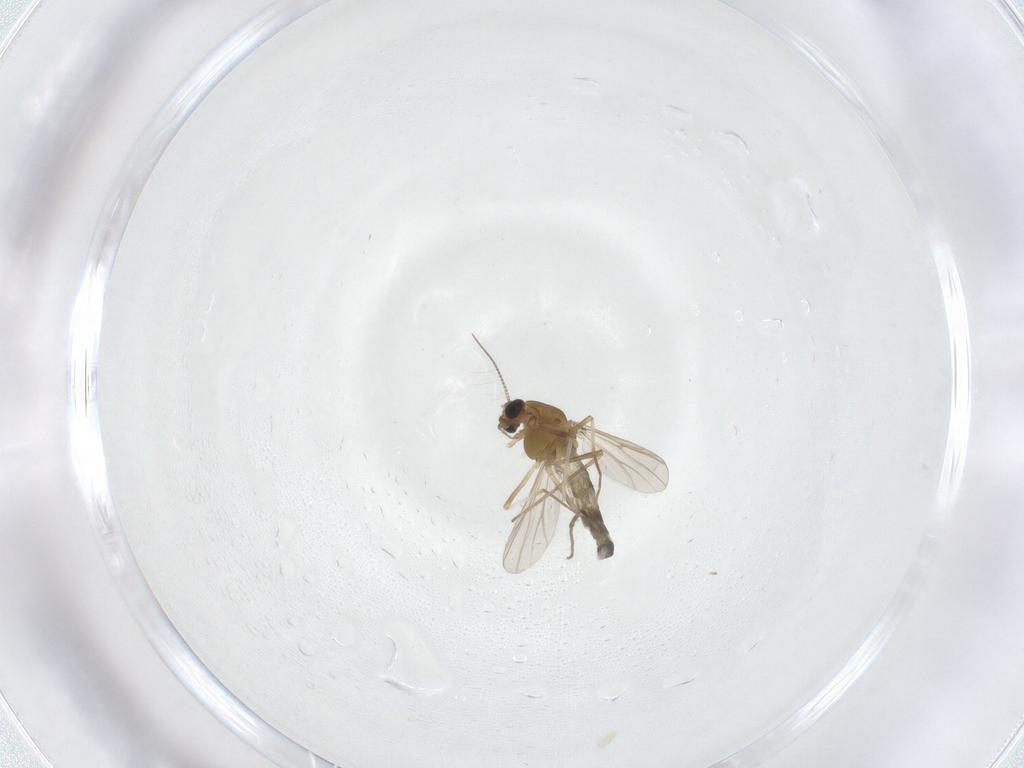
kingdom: Animalia
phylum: Arthropoda
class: Insecta
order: Diptera
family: Chironomidae
